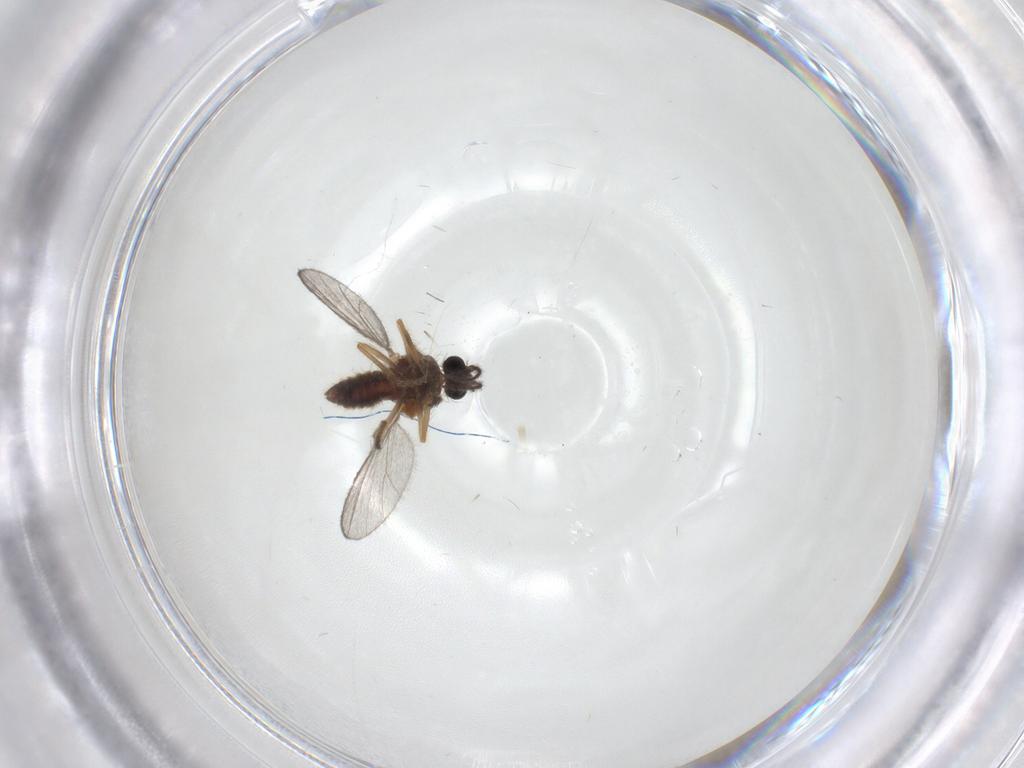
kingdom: Animalia
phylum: Arthropoda
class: Insecta
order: Diptera
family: Ceratopogonidae
